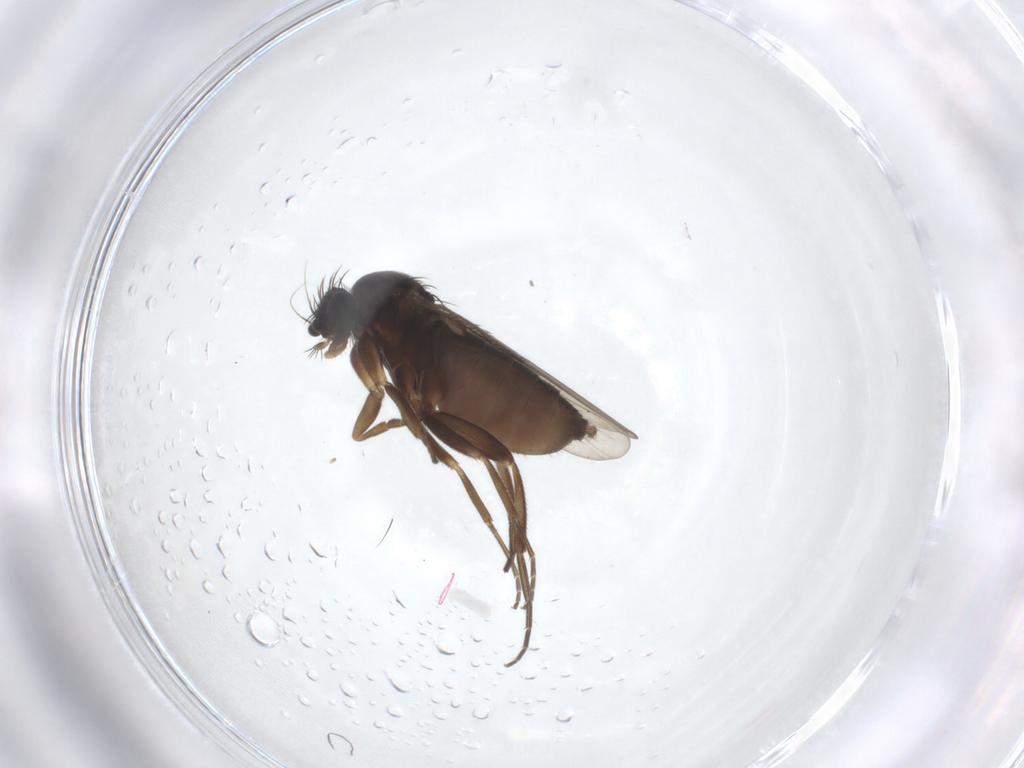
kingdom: Animalia
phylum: Arthropoda
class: Insecta
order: Diptera
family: Phoridae
